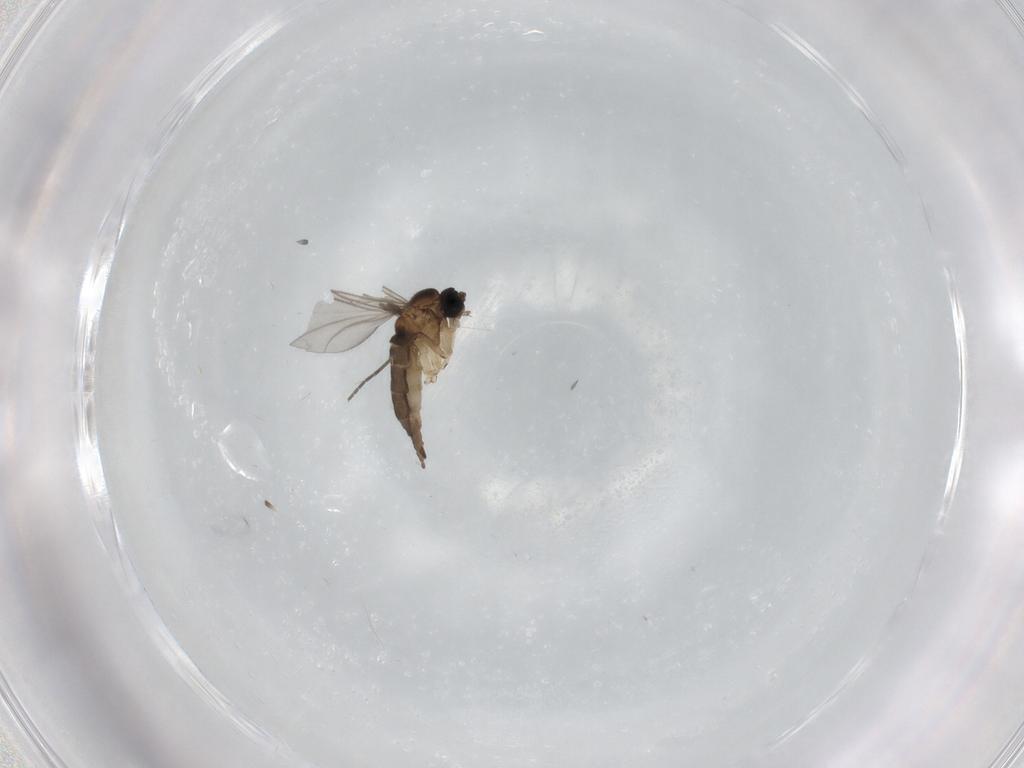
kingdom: Animalia
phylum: Arthropoda
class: Insecta
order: Diptera
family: Sciaridae
